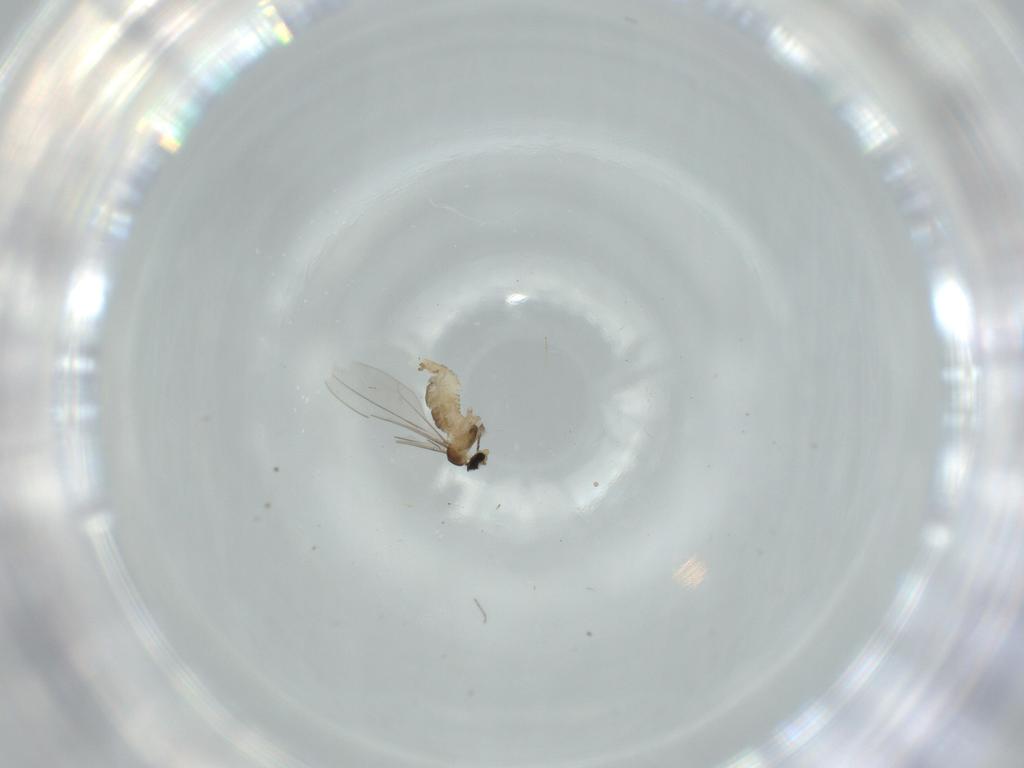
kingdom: Animalia
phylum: Arthropoda
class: Insecta
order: Diptera
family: Cecidomyiidae
